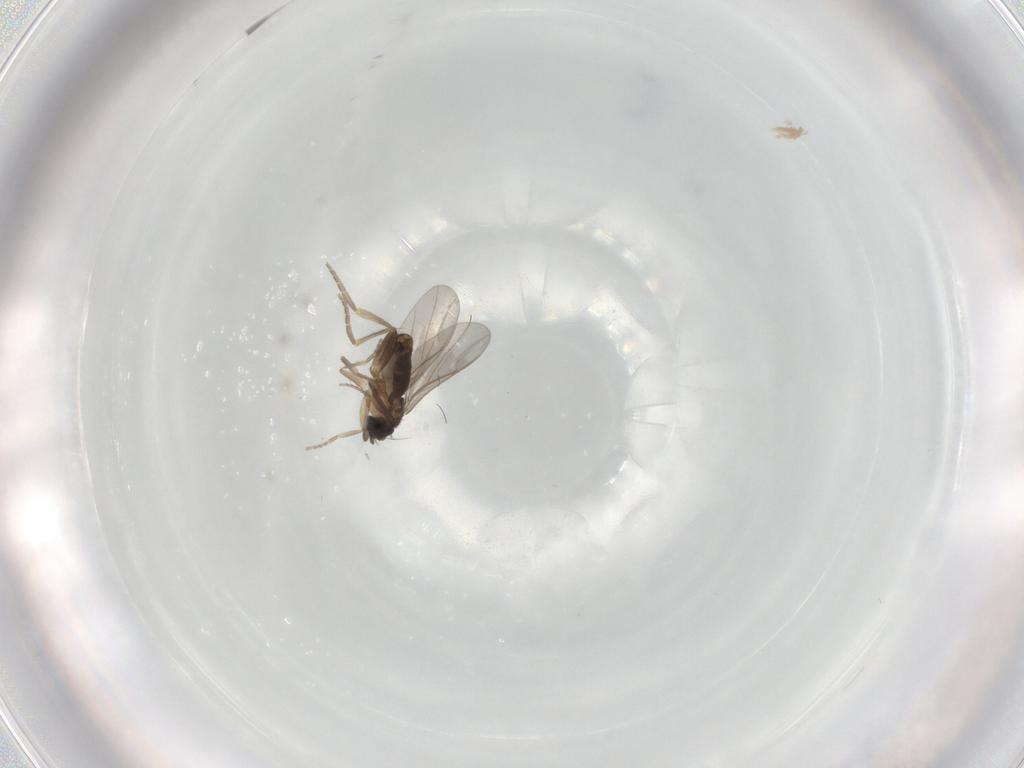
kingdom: Animalia
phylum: Arthropoda
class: Insecta
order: Diptera
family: Chironomidae
